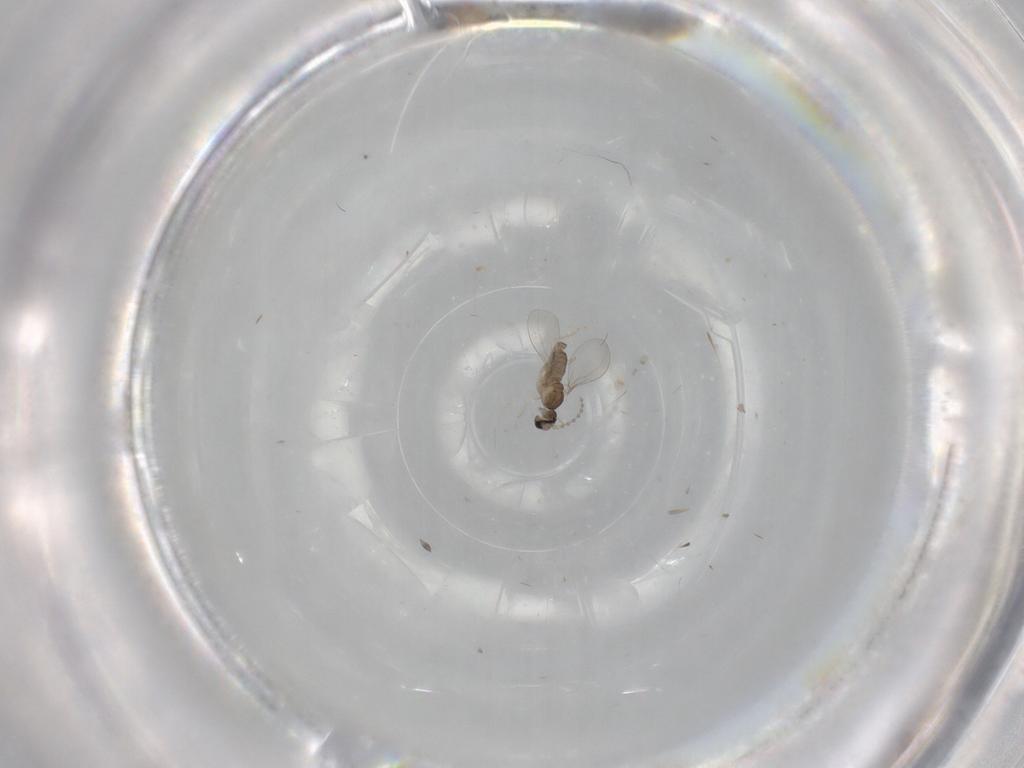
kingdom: Animalia
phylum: Arthropoda
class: Insecta
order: Diptera
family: Cecidomyiidae
